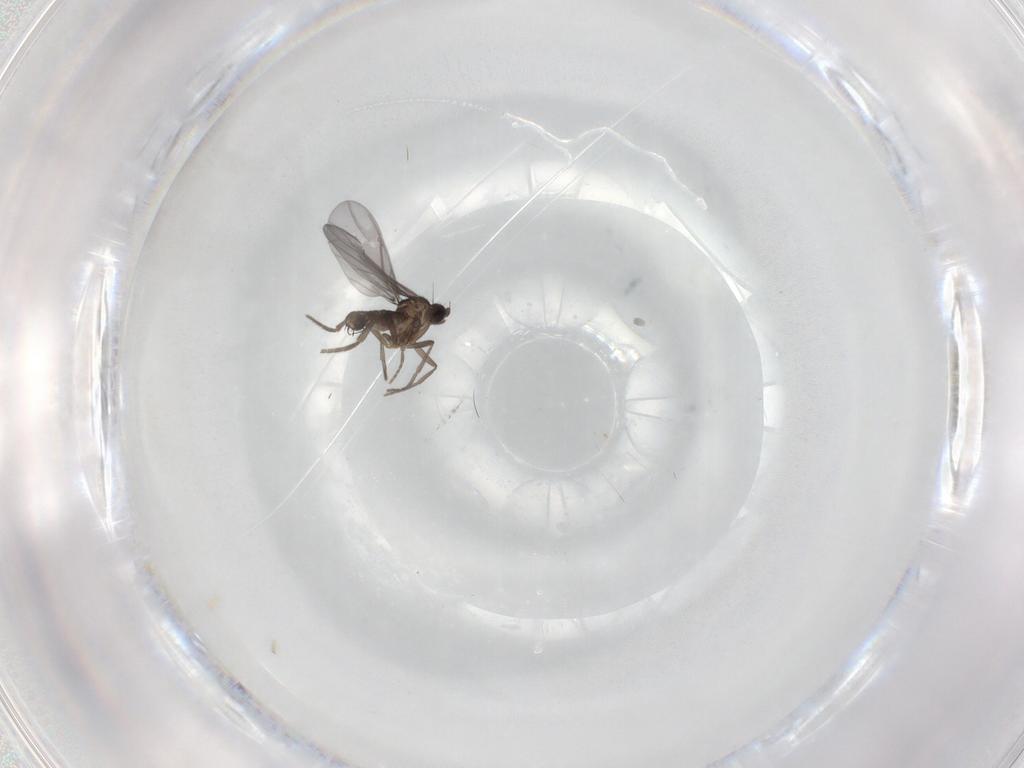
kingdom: Animalia
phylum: Arthropoda
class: Insecta
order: Diptera
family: Phoridae
